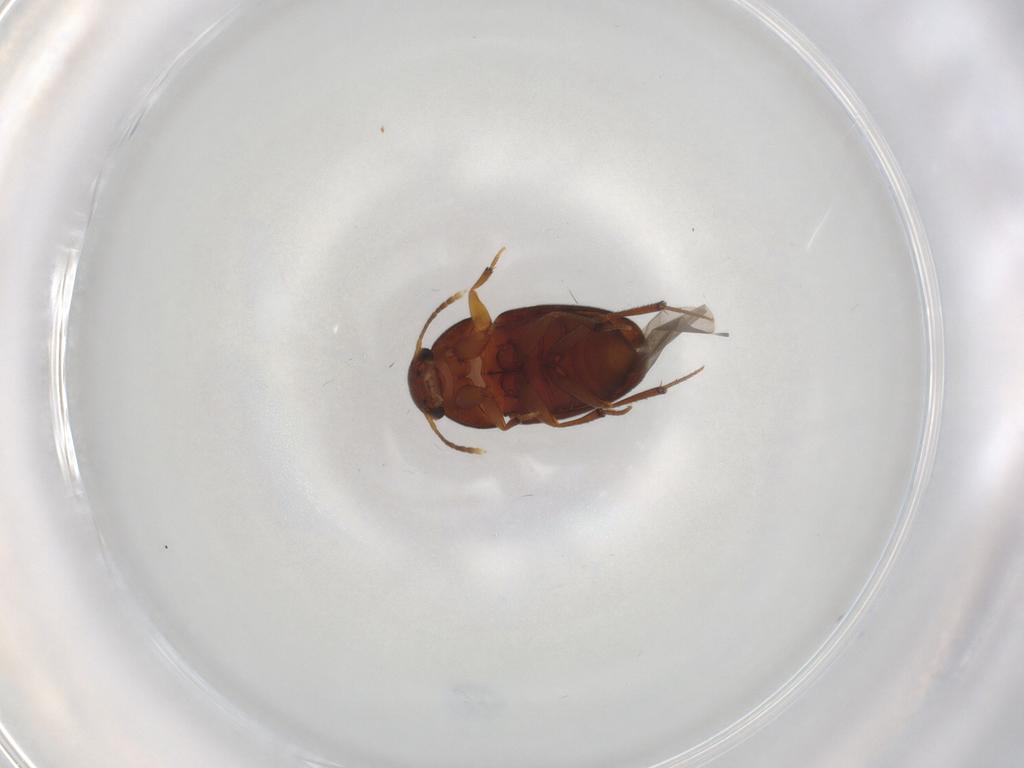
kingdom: Animalia
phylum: Arthropoda
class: Insecta
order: Coleoptera
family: Leiodidae
